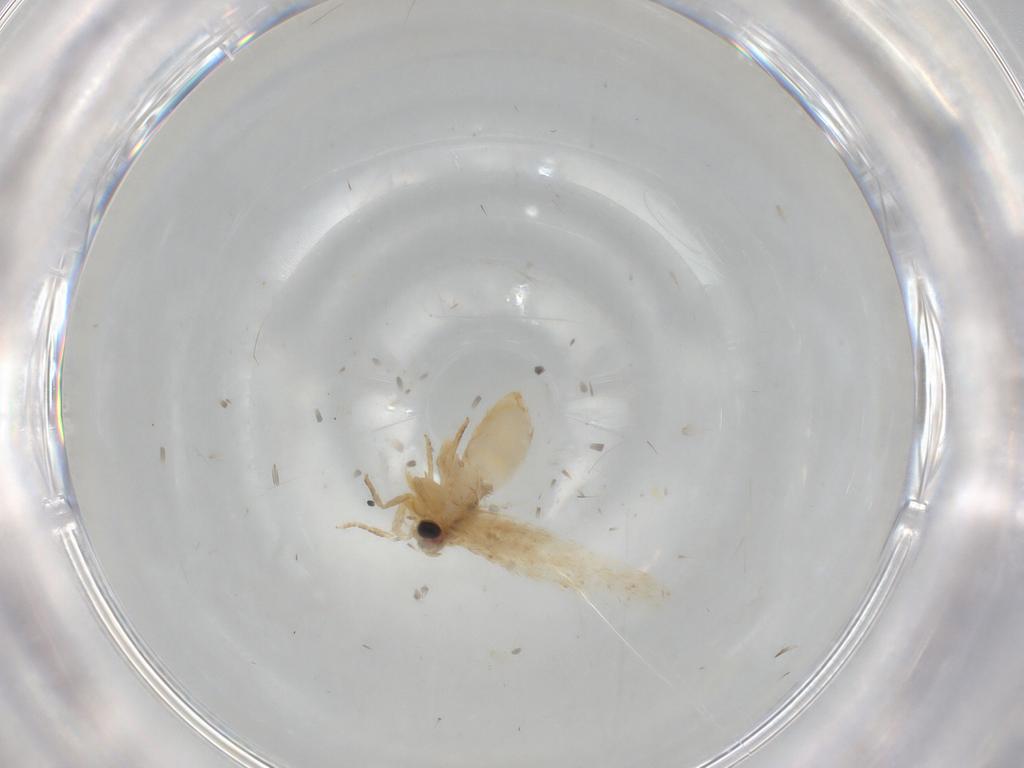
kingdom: Animalia
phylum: Arthropoda
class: Insecta
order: Lepidoptera
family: Nepticulidae
